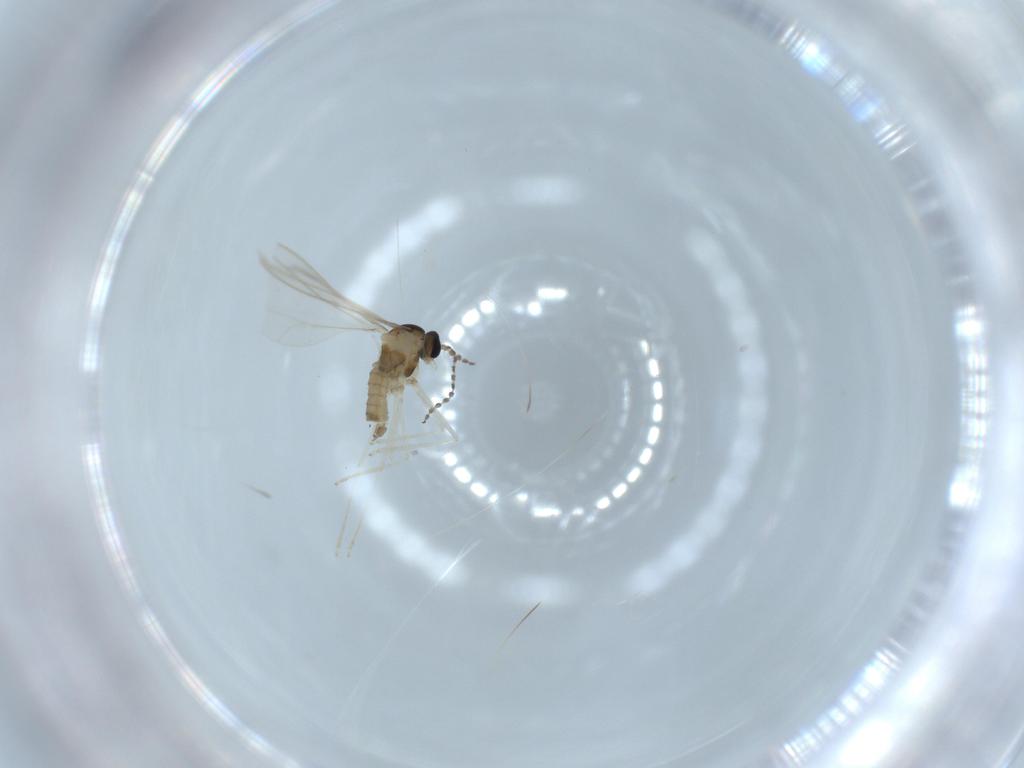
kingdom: Animalia
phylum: Arthropoda
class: Insecta
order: Diptera
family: Cecidomyiidae
